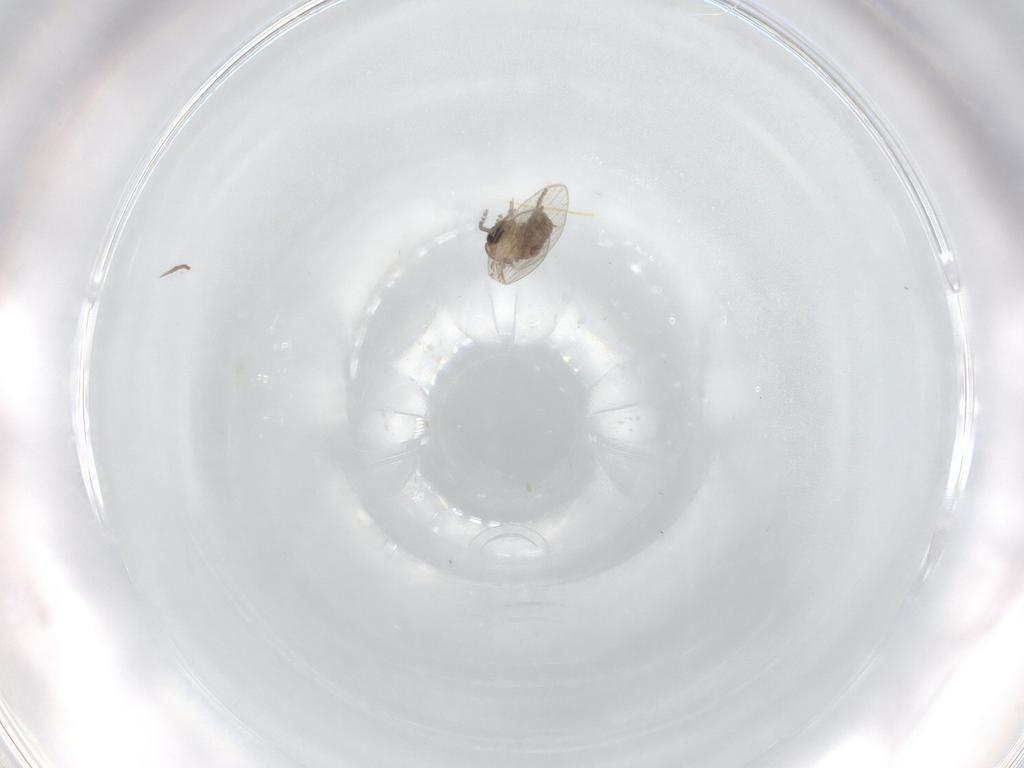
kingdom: Animalia
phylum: Arthropoda
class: Insecta
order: Diptera
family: Psychodidae
